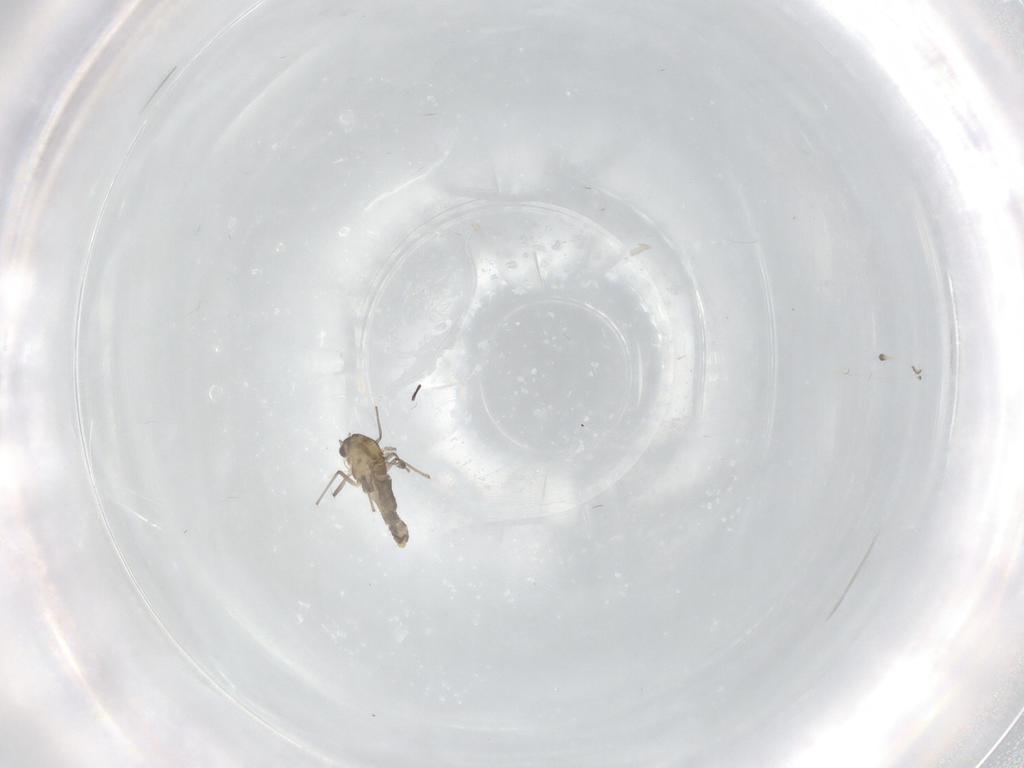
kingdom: Animalia
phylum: Arthropoda
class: Insecta
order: Diptera
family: Chironomidae
